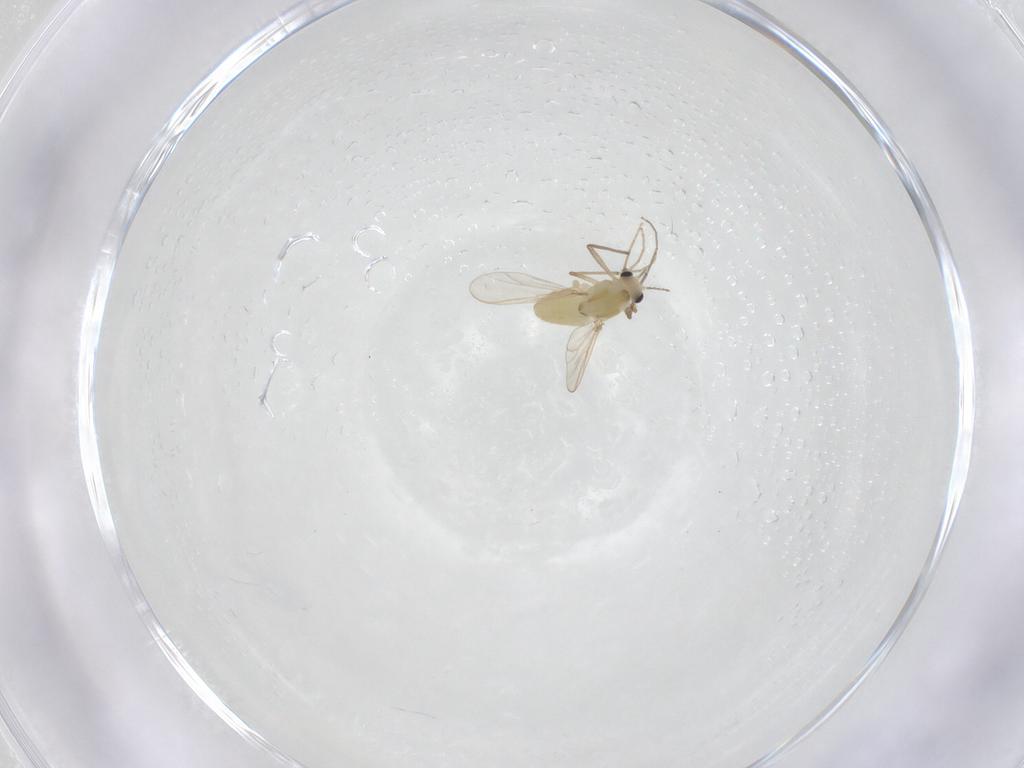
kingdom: Animalia
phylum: Arthropoda
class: Insecta
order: Diptera
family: Chironomidae
